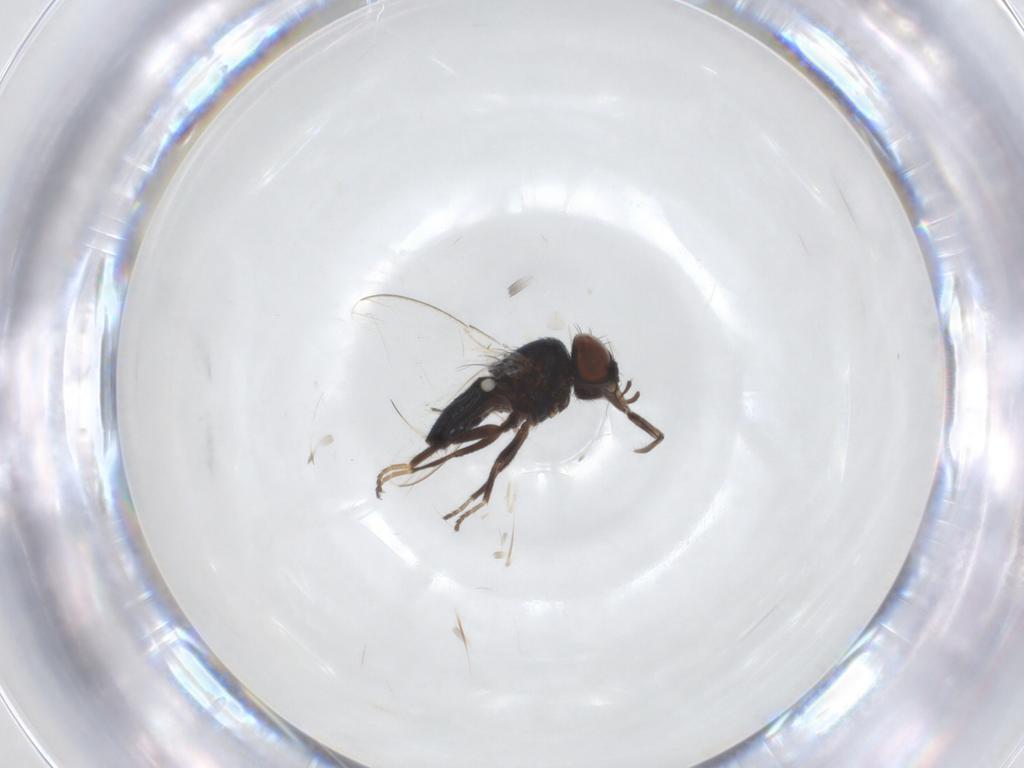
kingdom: Animalia
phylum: Arthropoda
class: Insecta
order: Diptera
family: Milichiidae
